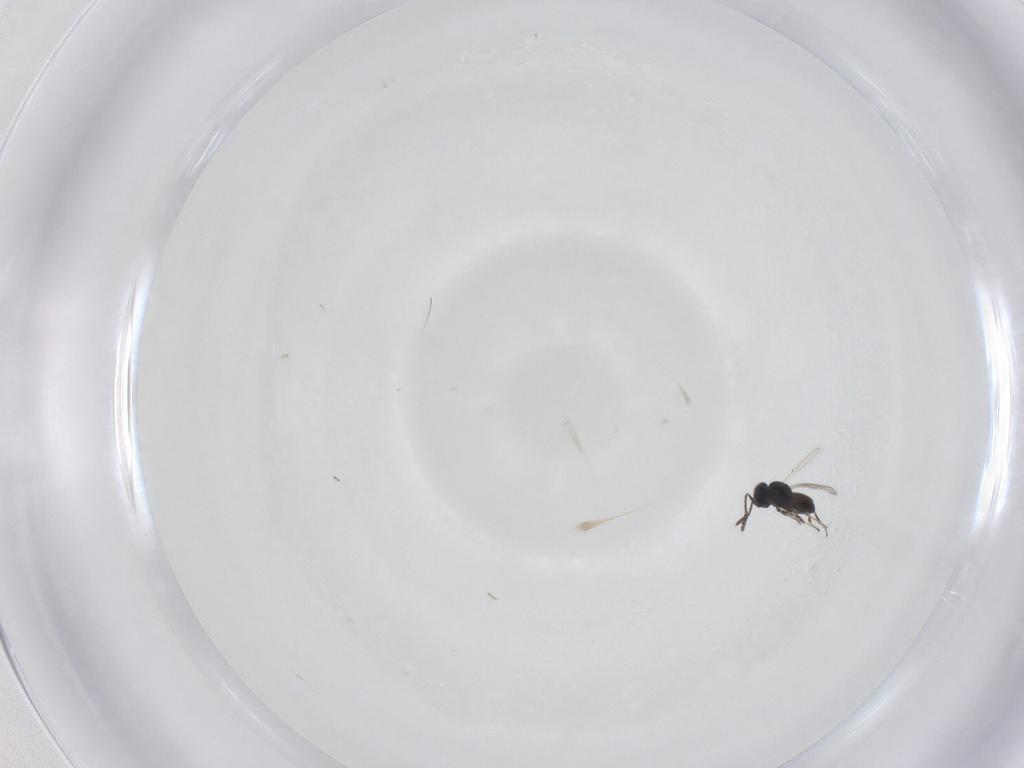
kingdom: Animalia
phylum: Arthropoda
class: Insecta
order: Hymenoptera
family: Scelionidae
